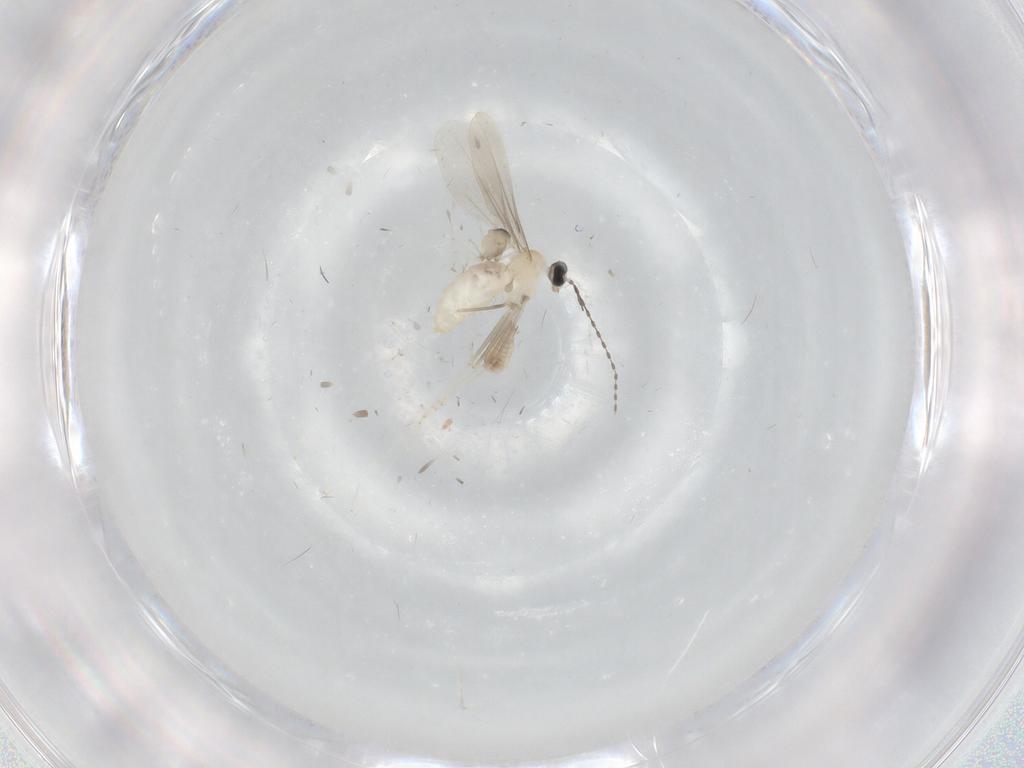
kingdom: Animalia
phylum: Arthropoda
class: Insecta
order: Diptera
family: Cecidomyiidae
